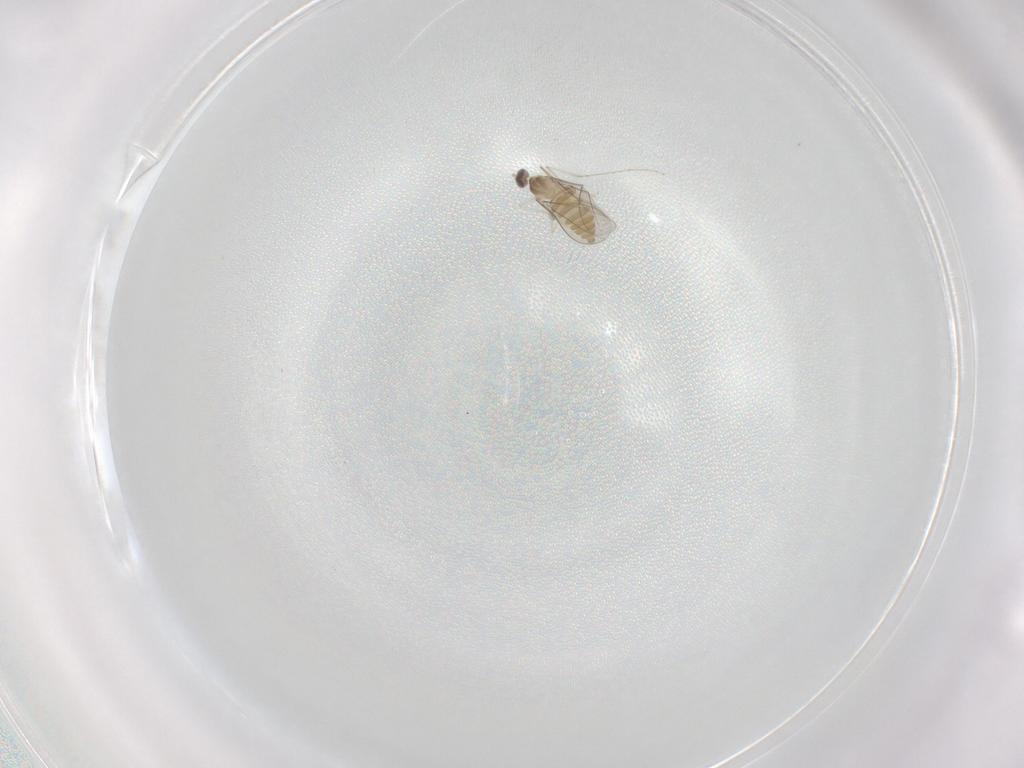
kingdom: Animalia
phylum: Arthropoda
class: Insecta
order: Diptera
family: Cecidomyiidae
